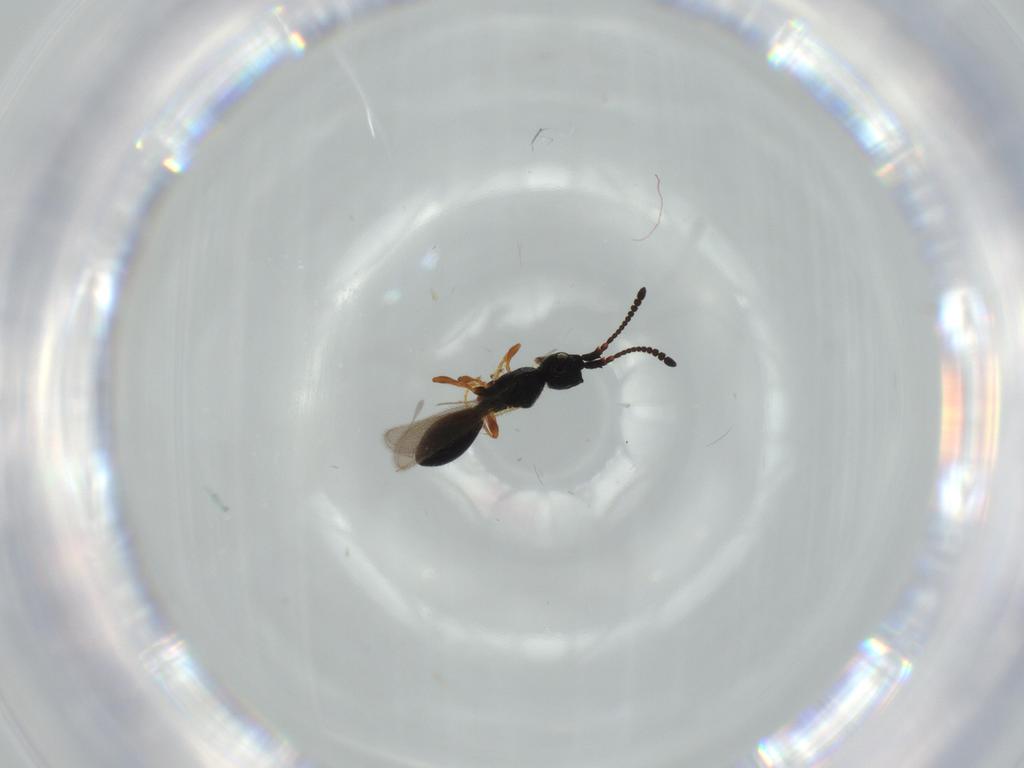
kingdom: Animalia
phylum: Arthropoda
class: Insecta
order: Hymenoptera
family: Diapriidae
